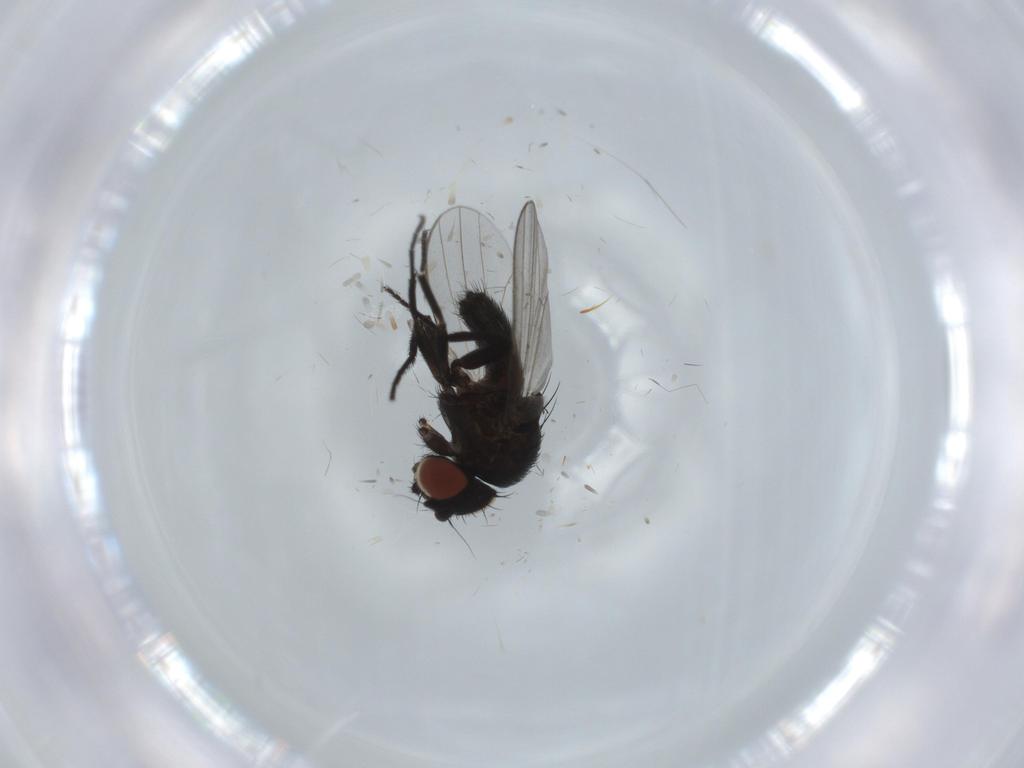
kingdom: Animalia
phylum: Arthropoda
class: Insecta
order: Diptera
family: Milichiidae
